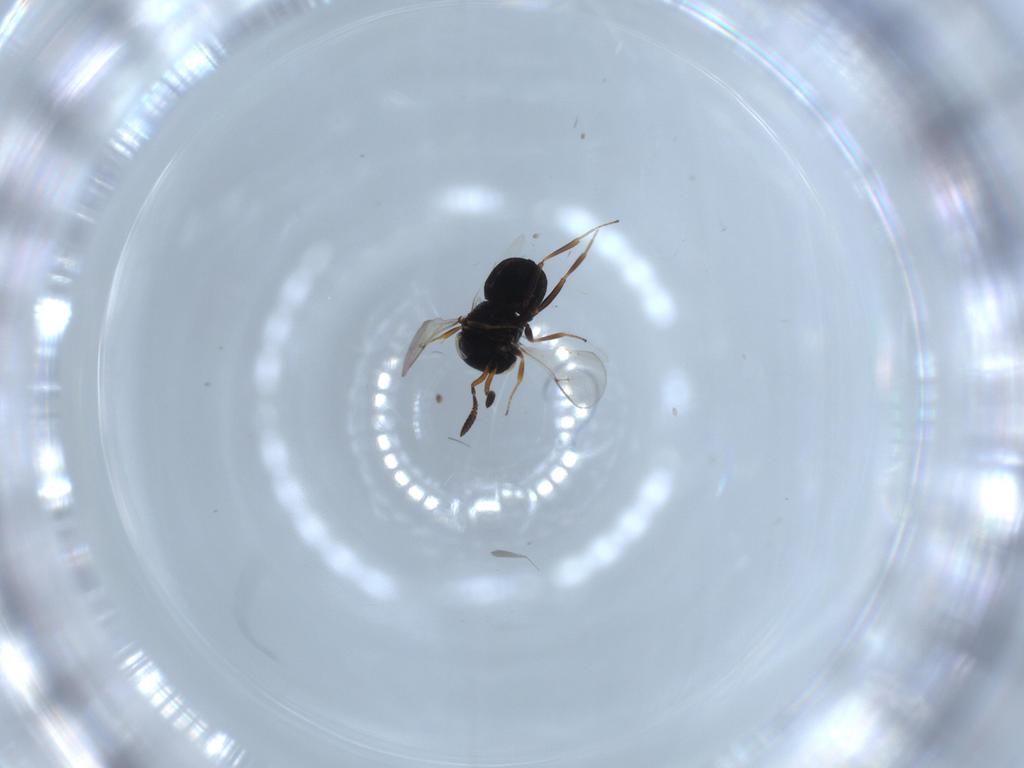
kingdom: Animalia
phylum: Arthropoda
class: Insecta
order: Hymenoptera
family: Scelionidae
